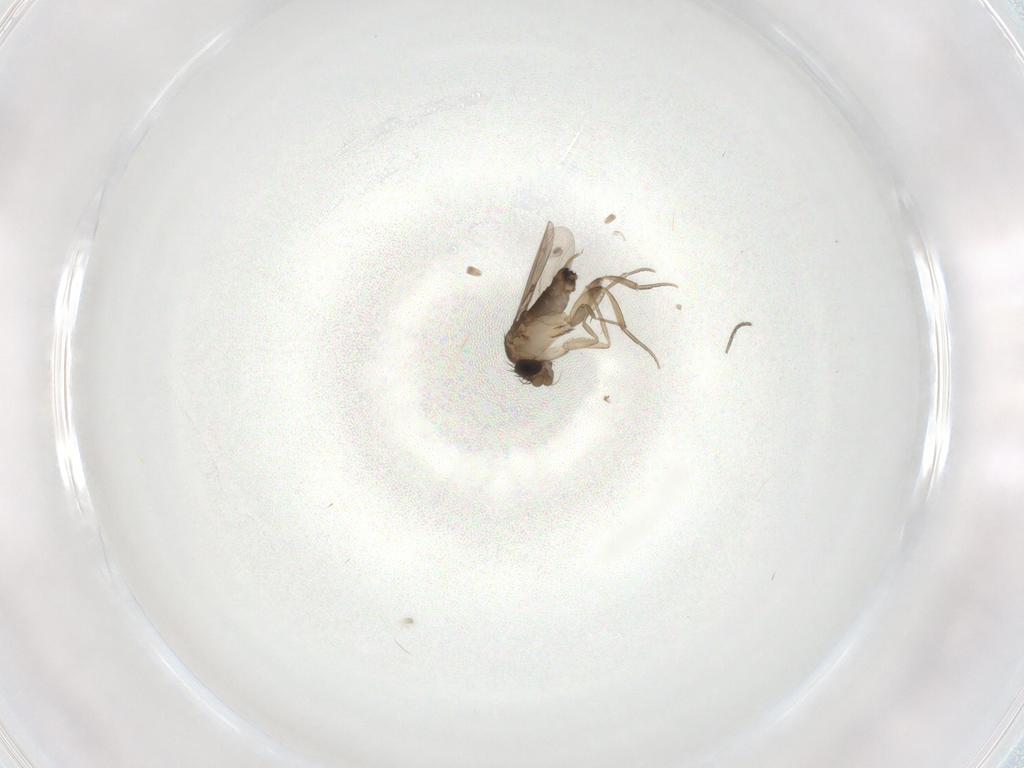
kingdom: Animalia
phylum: Arthropoda
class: Insecta
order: Diptera
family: Phoridae
